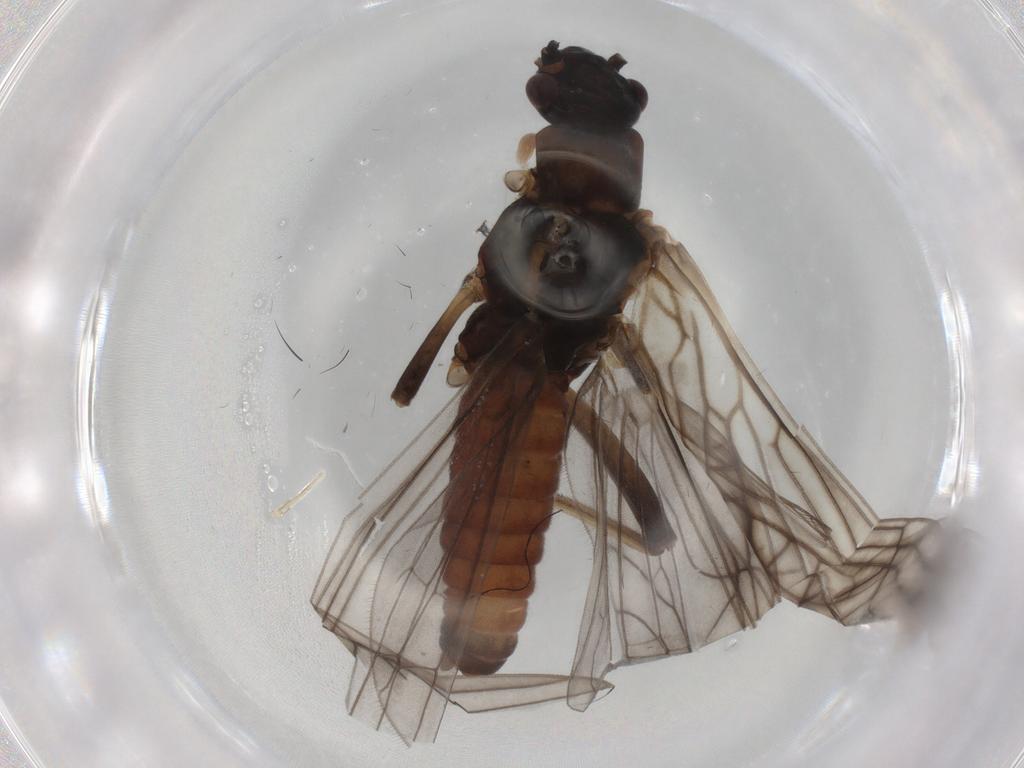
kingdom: Animalia
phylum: Arthropoda
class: Insecta
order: Plecoptera
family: Nemouridae
